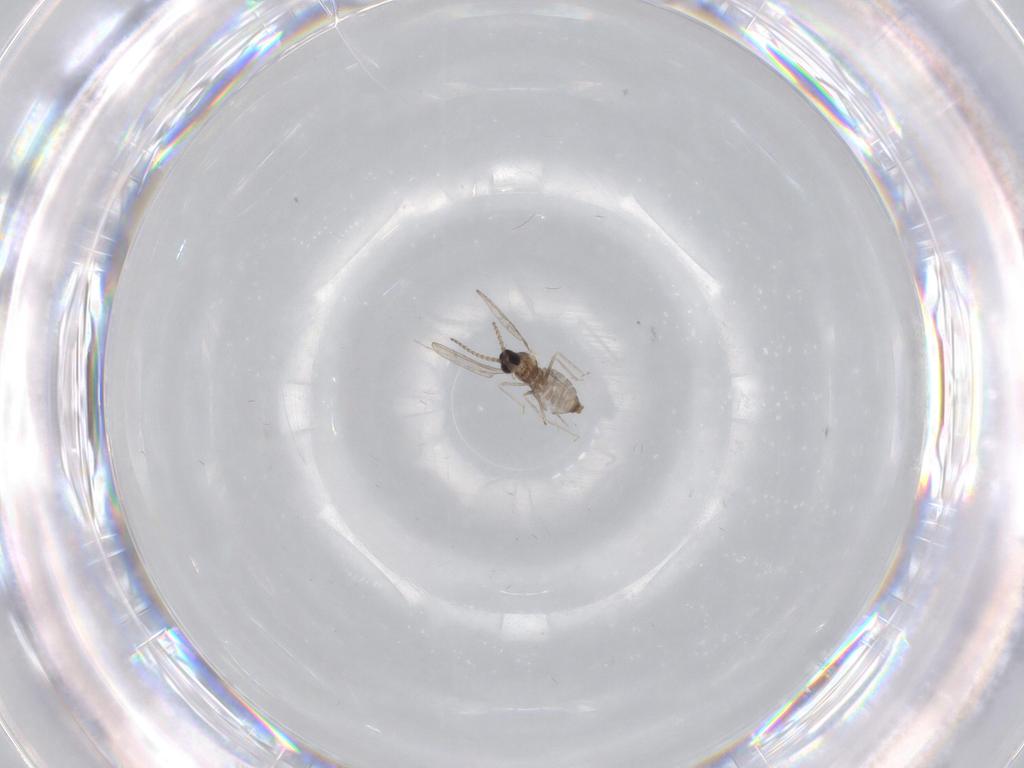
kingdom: Animalia
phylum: Arthropoda
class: Insecta
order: Diptera
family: Cecidomyiidae
